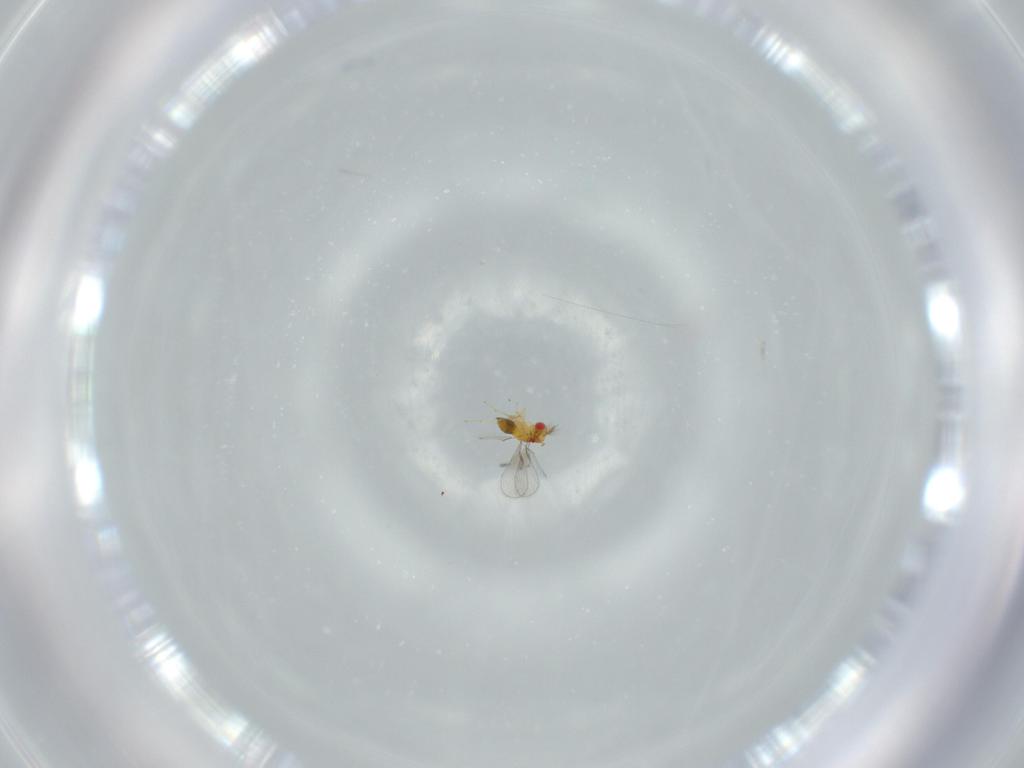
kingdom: Animalia
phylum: Arthropoda
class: Insecta
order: Hymenoptera
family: Trichogrammatidae
